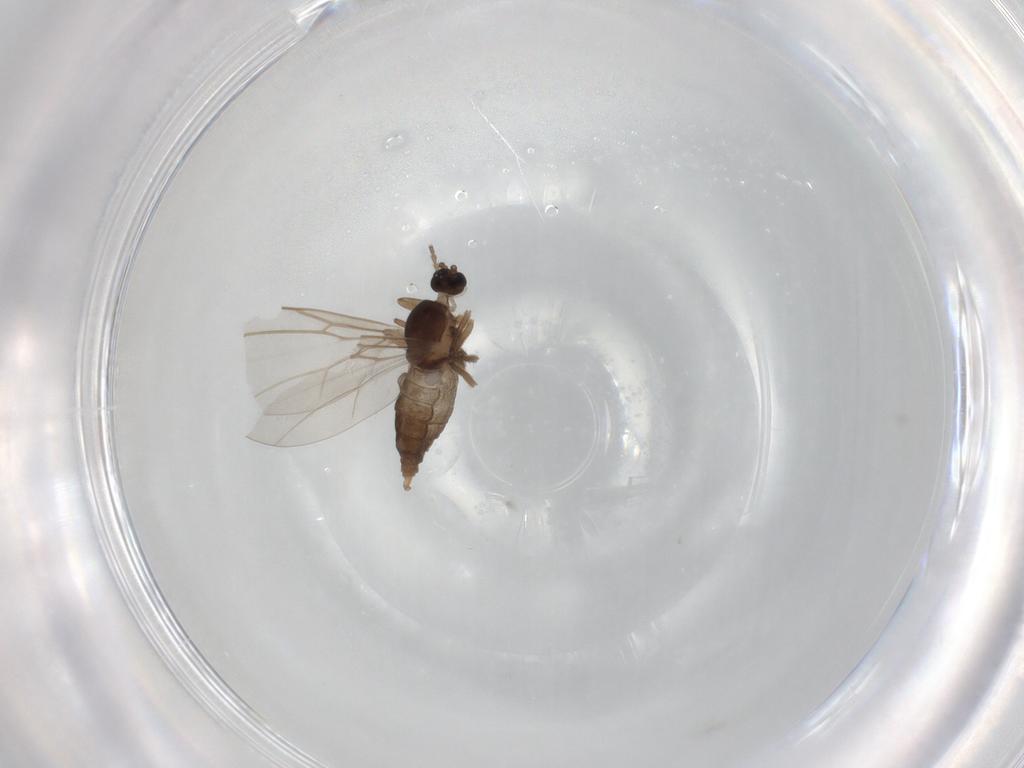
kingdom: Animalia
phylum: Arthropoda
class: Insecta
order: Diptera
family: Cecidomyiidae
